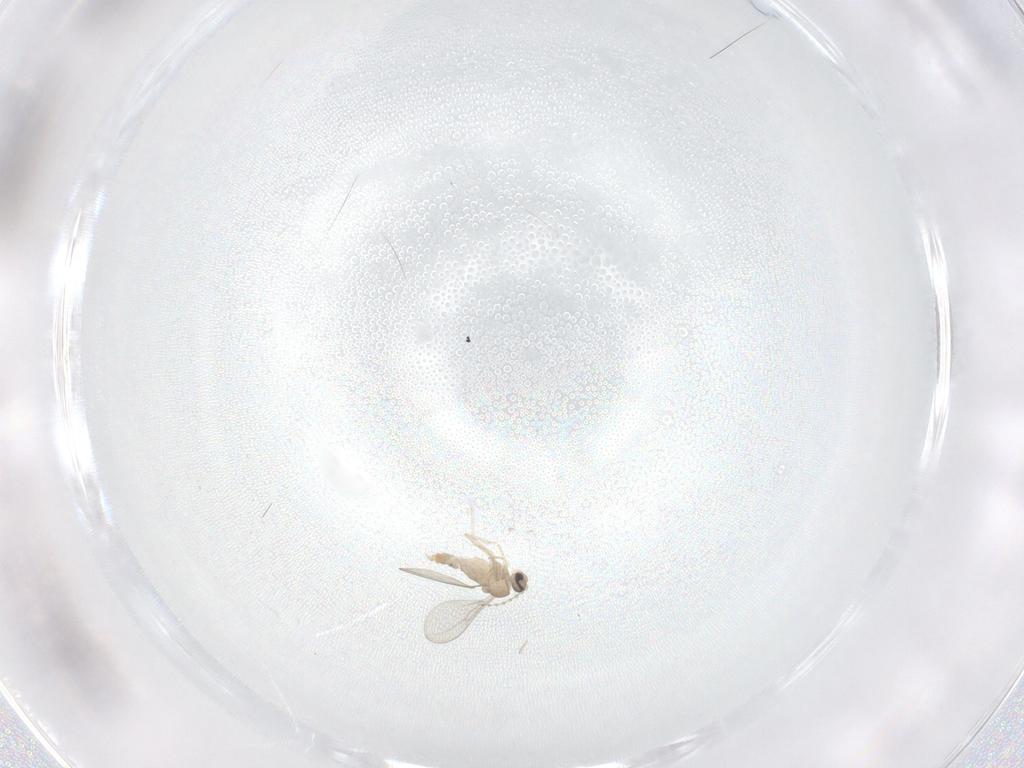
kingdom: Animalia
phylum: Arthropoda
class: Insecta
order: Diptera
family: Cecidomyiidae
